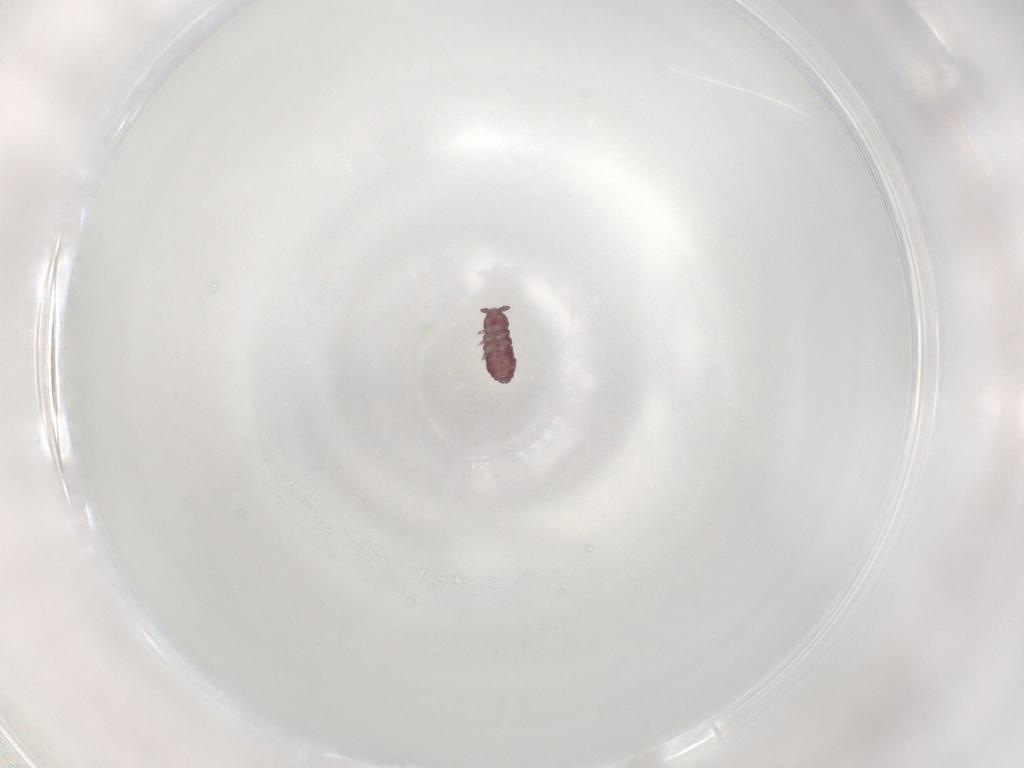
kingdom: Animalia
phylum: Arthropoda
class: Collembola
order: Poduromorpha
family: Hypogastruridae
